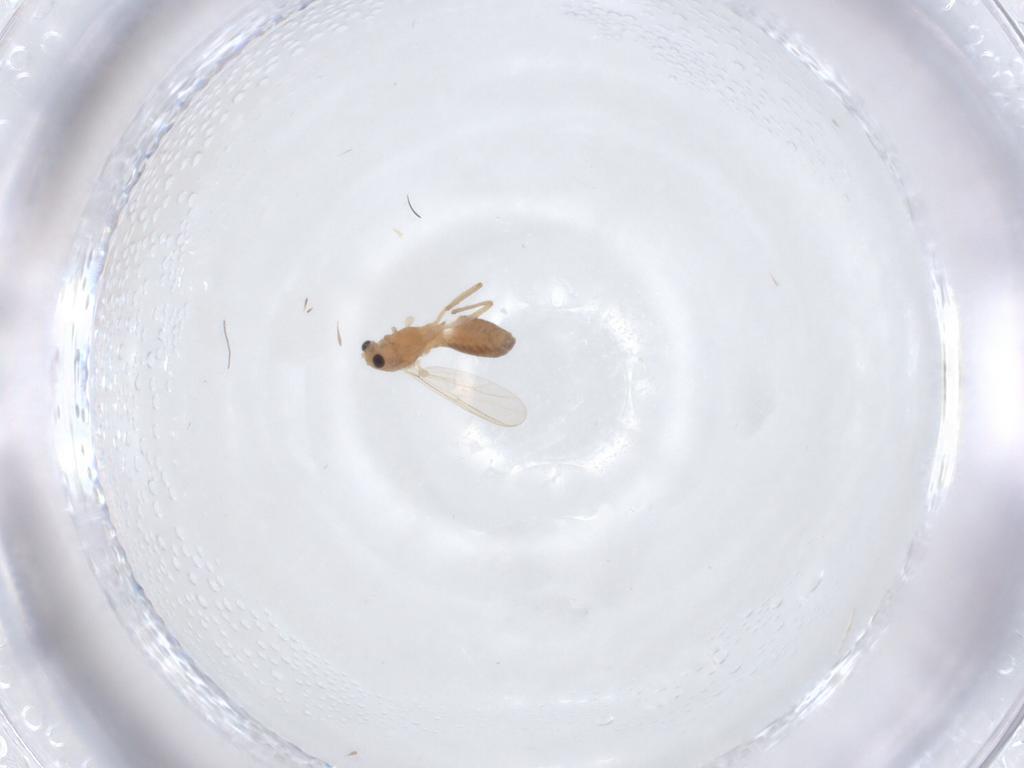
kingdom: Animalia
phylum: Arthropoda
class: Insecta
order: Diptera
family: Chironomidae
